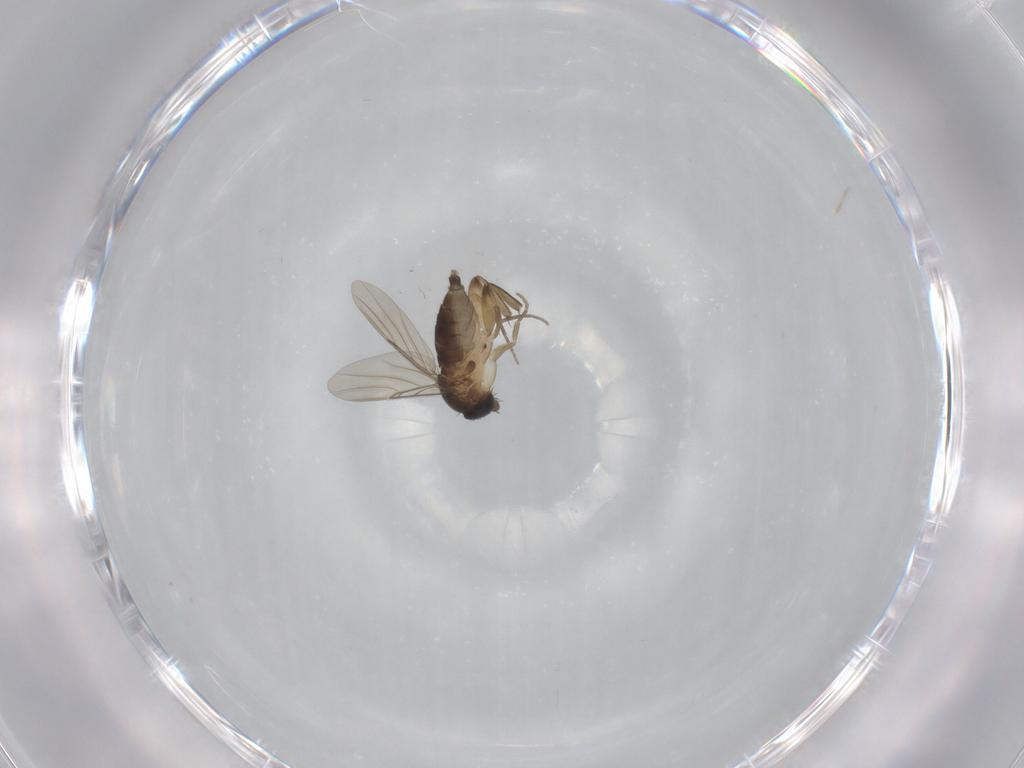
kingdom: Animalia
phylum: Arthropoda
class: Insecta
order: Diptera
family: Phoridae
